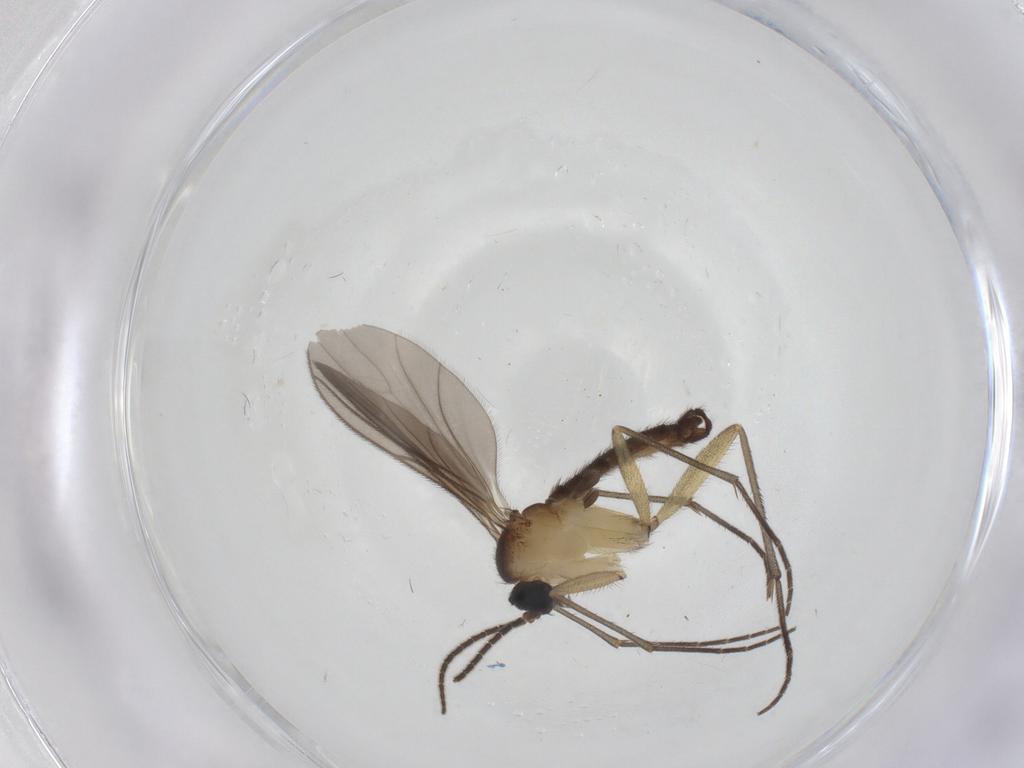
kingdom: Animalia
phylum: Arthropoda
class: Insecta
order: Diptera
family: Sciaridae
